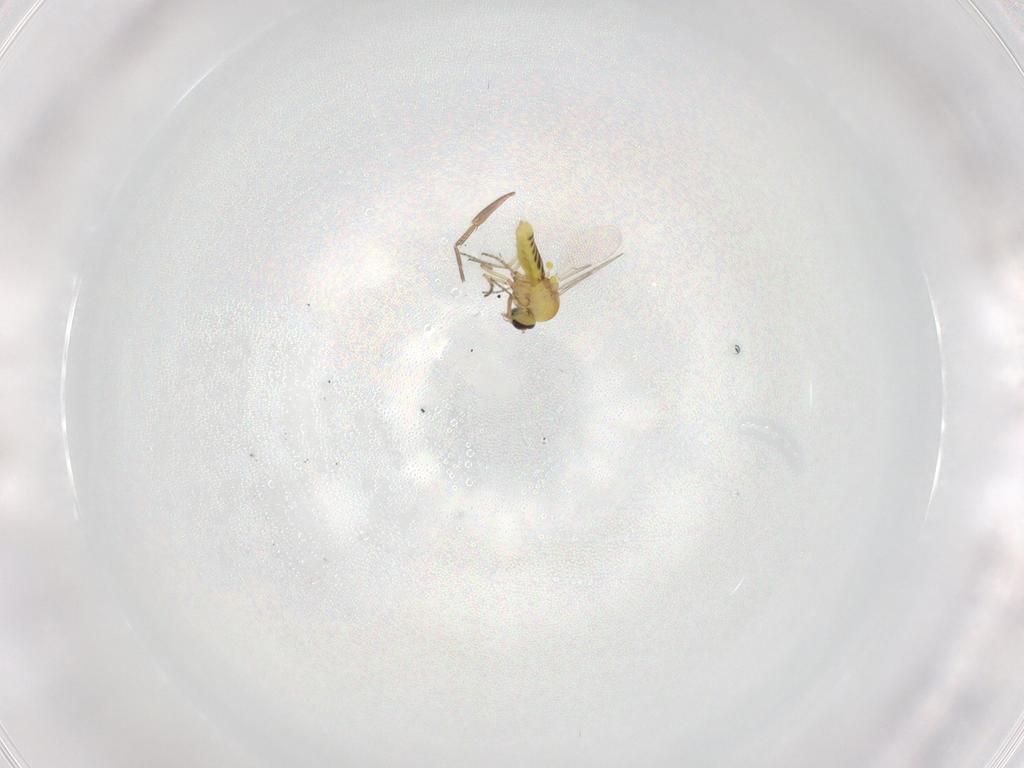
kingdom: Animalia
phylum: Arthropoda
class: Insecta
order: Diptera
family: Ceratopogonidae
